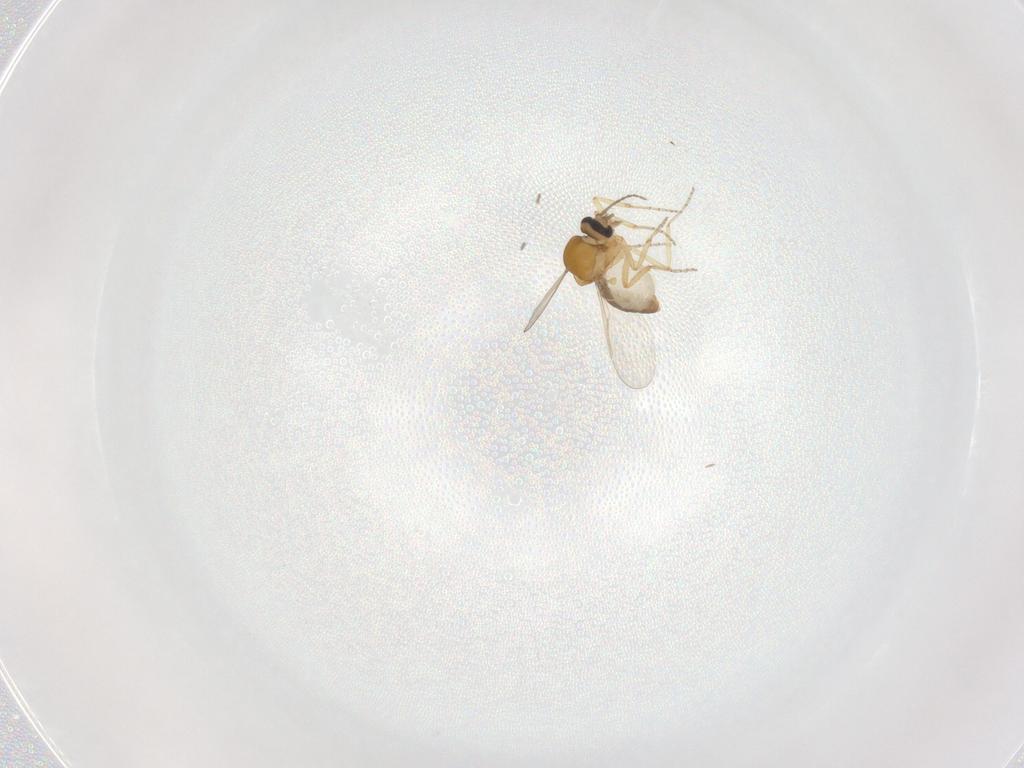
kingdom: Animalia
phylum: Arthropoda
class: Insecta
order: Diptera
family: Ceratopogonidae
